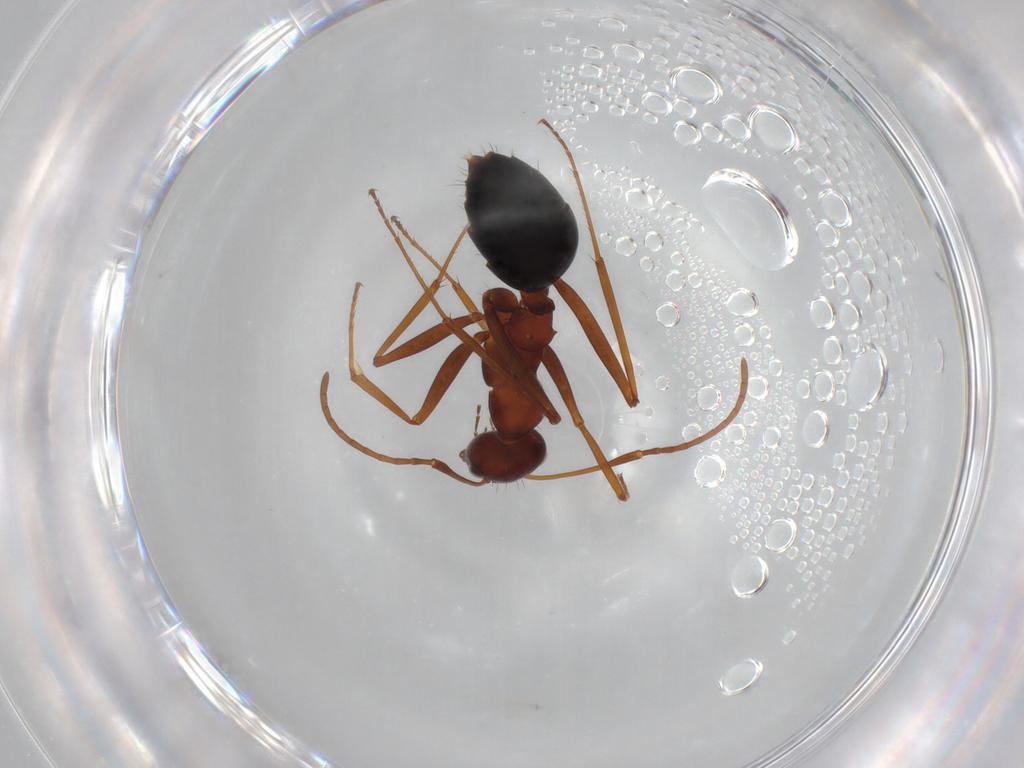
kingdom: Animalia
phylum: Arthropoda
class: Insecta
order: Hymenoptera
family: Formicidae
